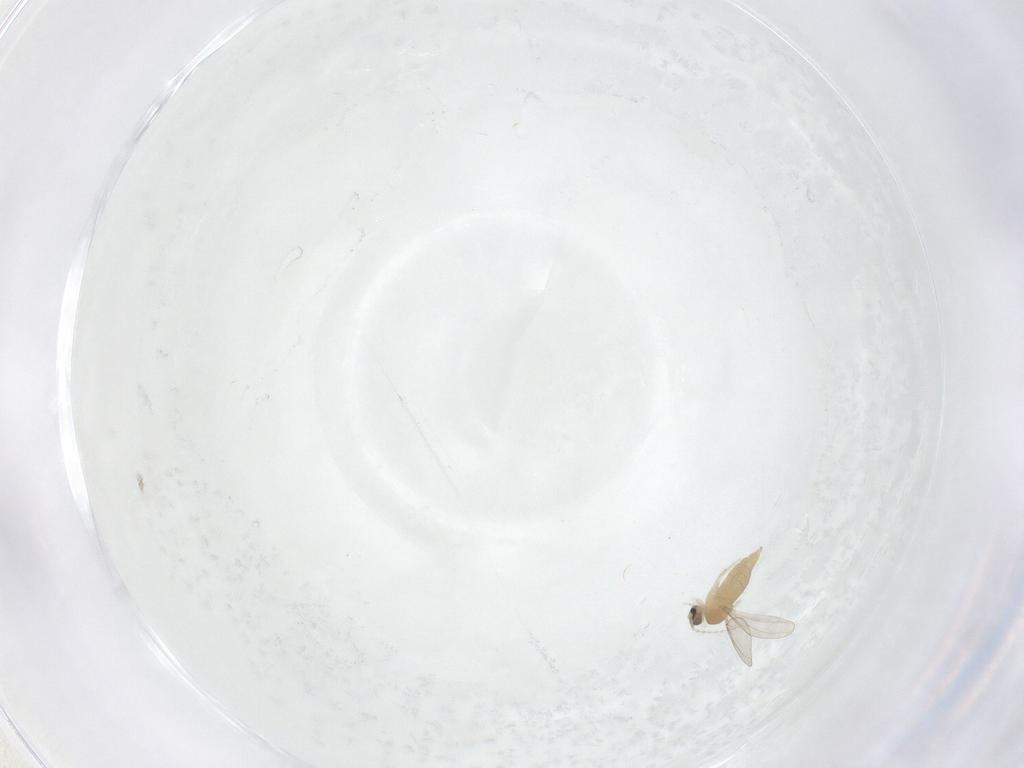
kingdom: Animalia
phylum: Arthropoda
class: Insecta
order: Diptera
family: Cecidomyiidae
